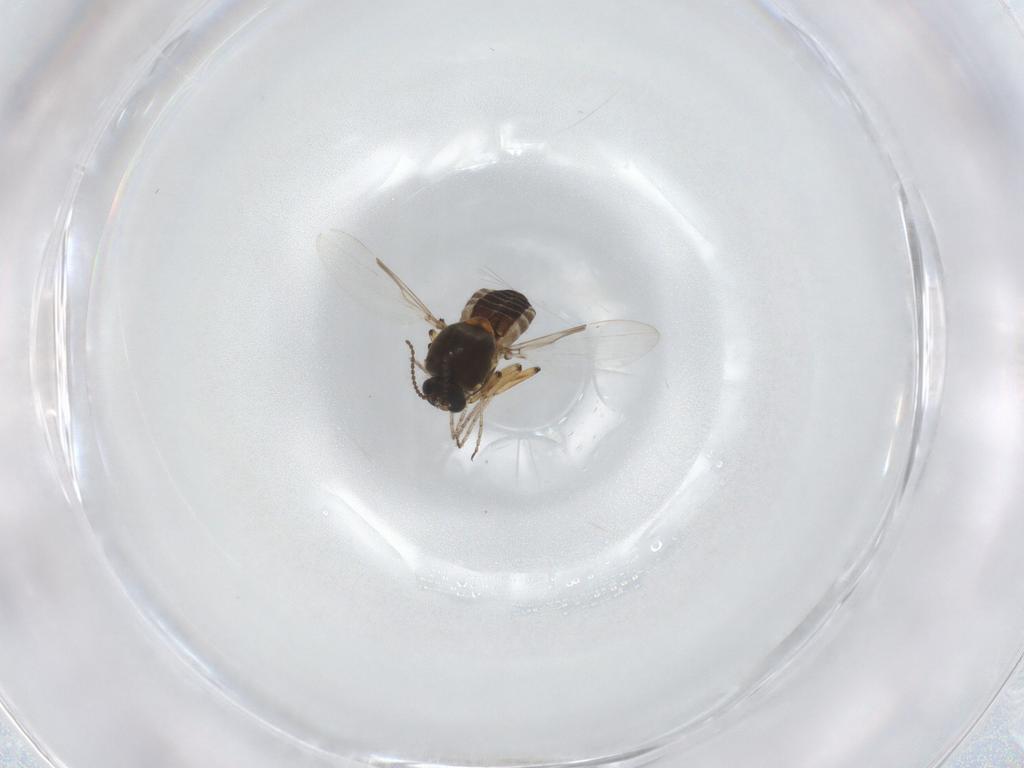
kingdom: Animalia
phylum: Arthropoda
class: Insecta
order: Diptera
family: Ceratopogonidae
